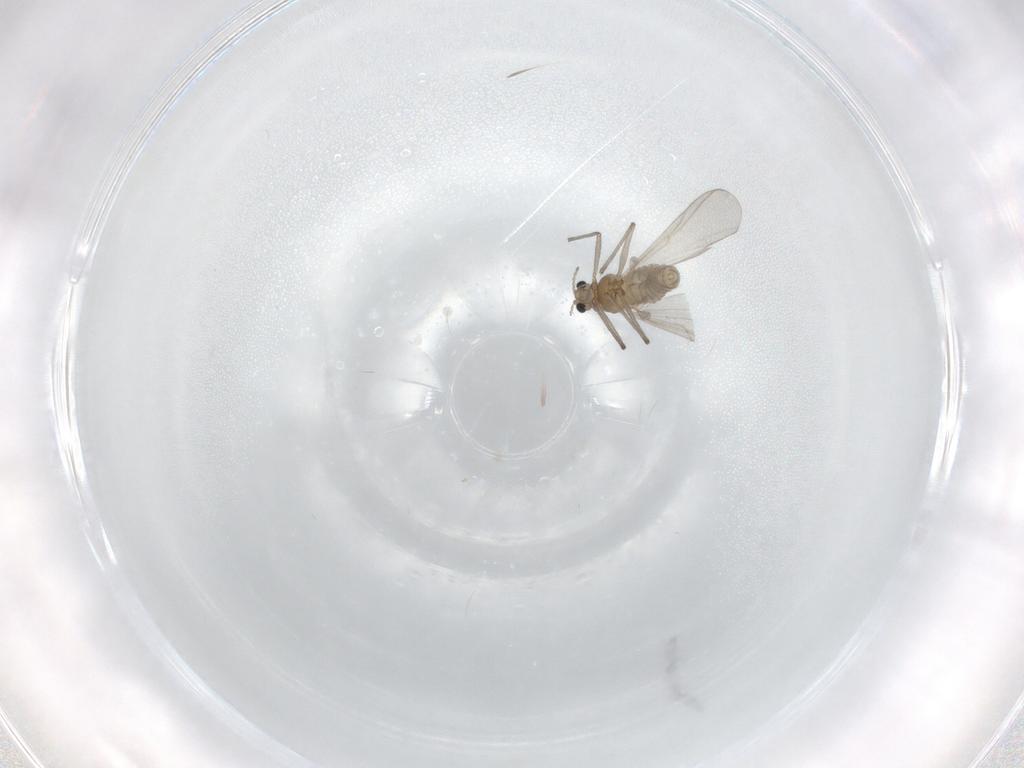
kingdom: Animalia
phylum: Arthropoda
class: Insecta
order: Diptera
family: Chironomidae
